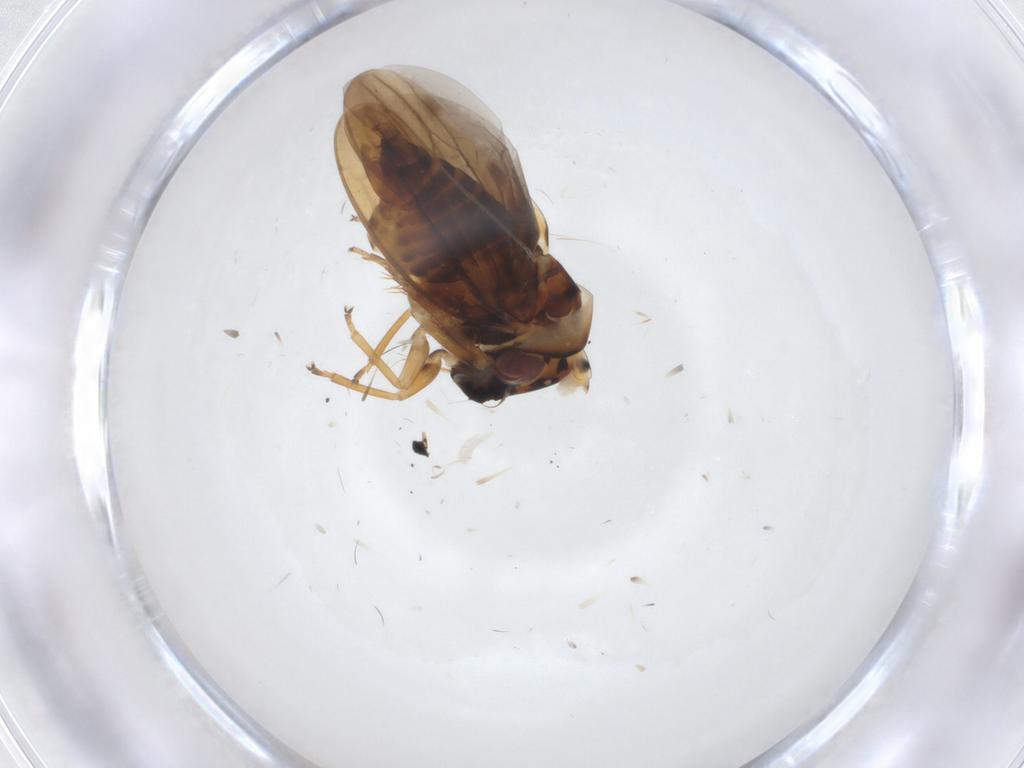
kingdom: Animalia
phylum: Arthropoda
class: Insecta
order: Hemiptera
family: Cicadellidae
